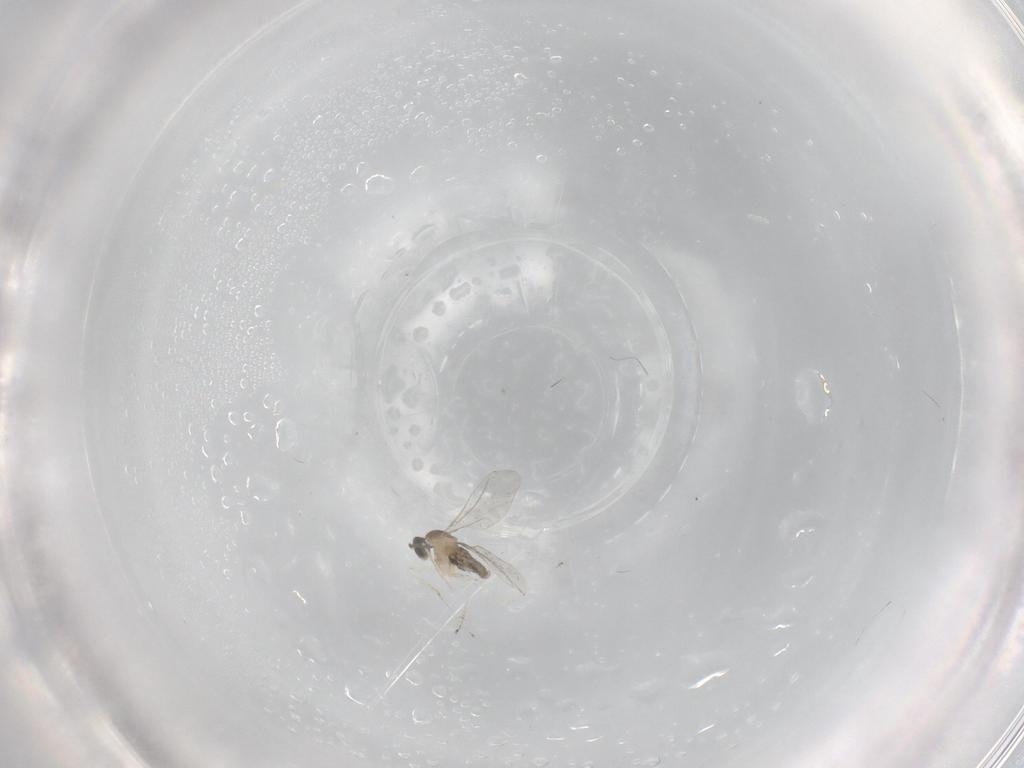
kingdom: Animalia
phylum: Arthropoda
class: Insecta
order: Diptera
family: Cecidomyiidae
